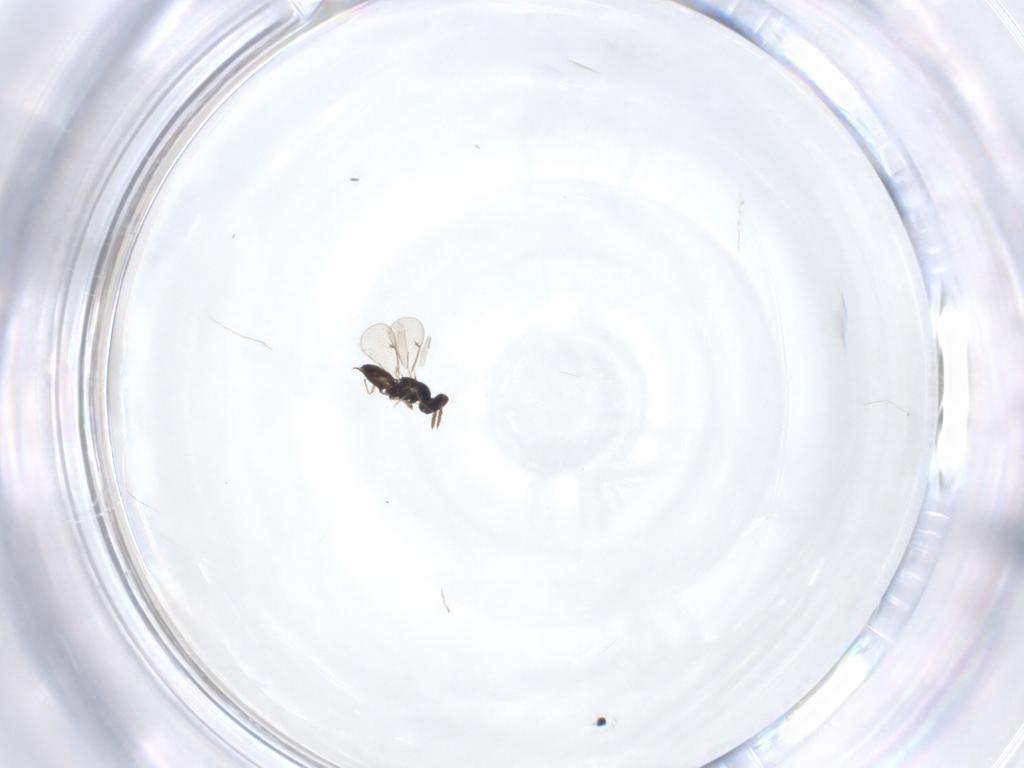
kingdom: Animalia
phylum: Arthropoda
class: Insecta
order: Hymenoptera
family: Eulophidae
